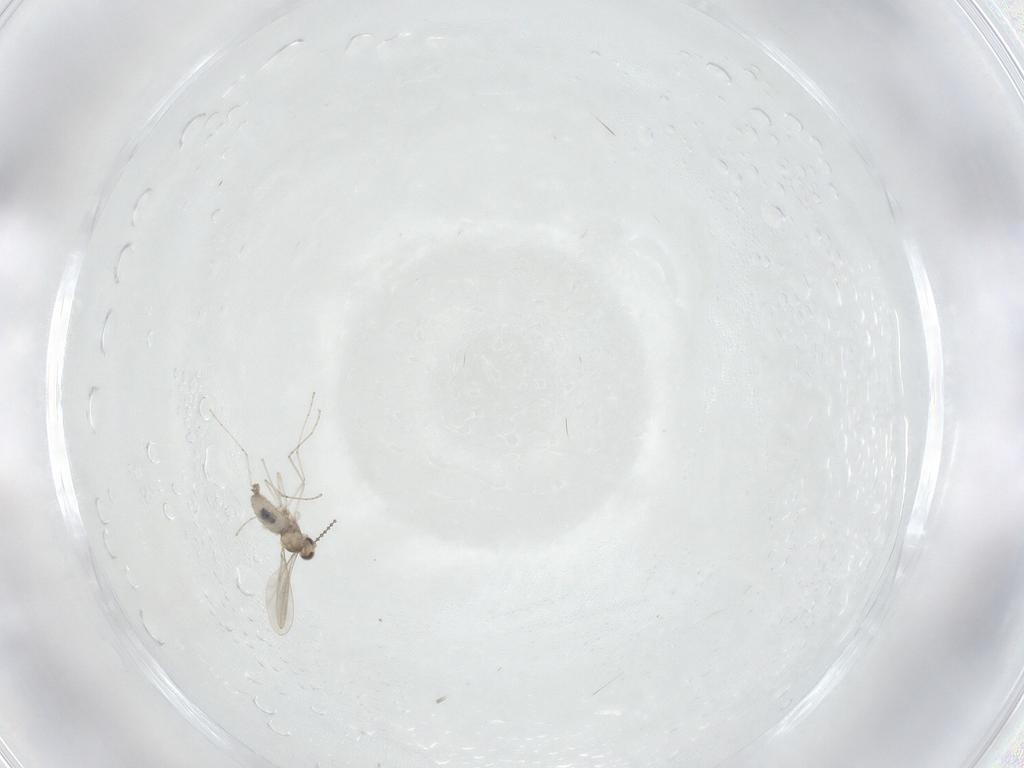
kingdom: Animalia
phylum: Arthropoda
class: Insecta
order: Diptera
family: Cecidomyiidae
